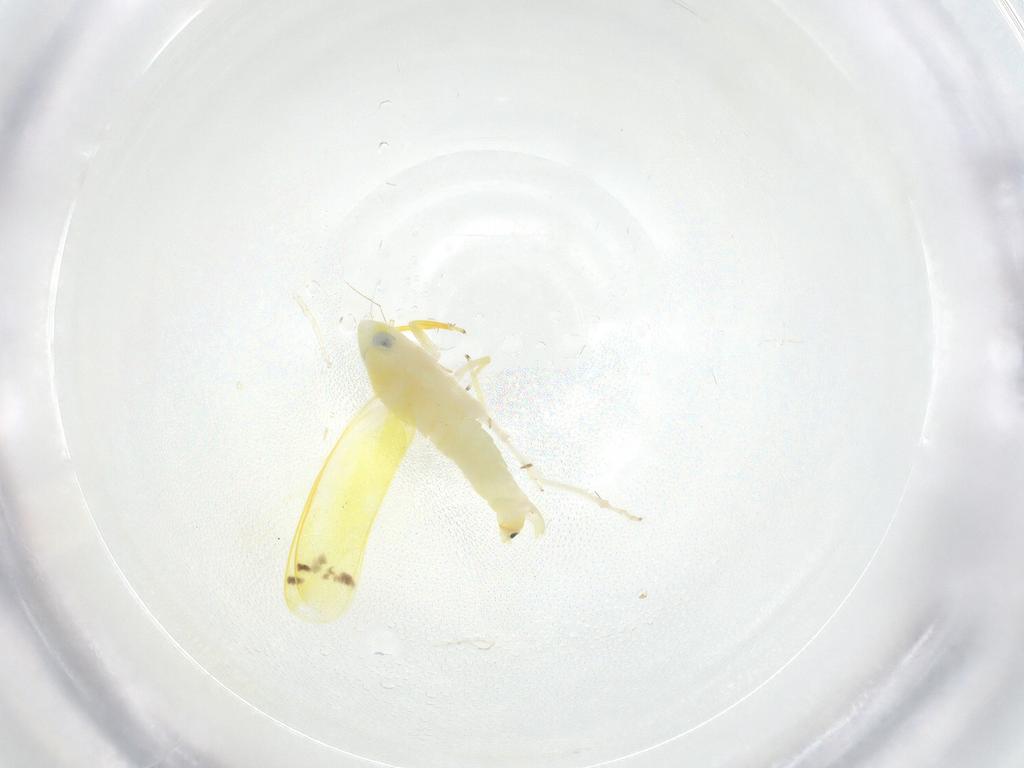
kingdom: Animalia
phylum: Arthropoda
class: Insecta
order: Hemiptera
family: Cicadellidae
